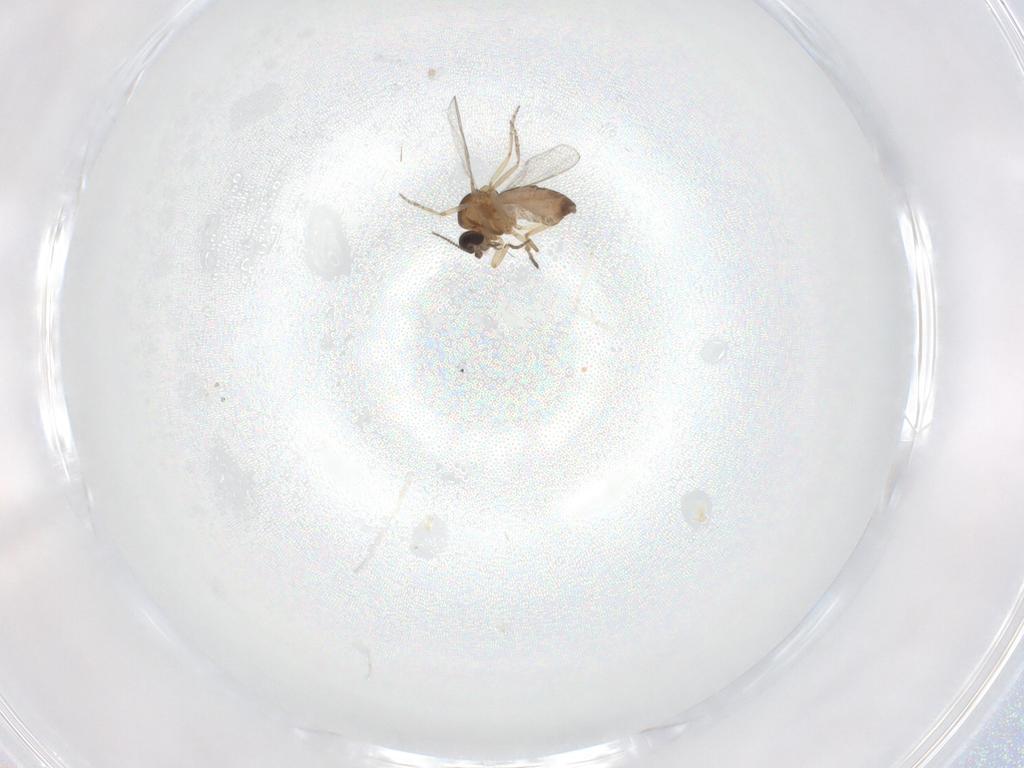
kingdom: Animalia
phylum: Arthropoda
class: Insecta
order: Diptera
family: Cecidomyiidae
